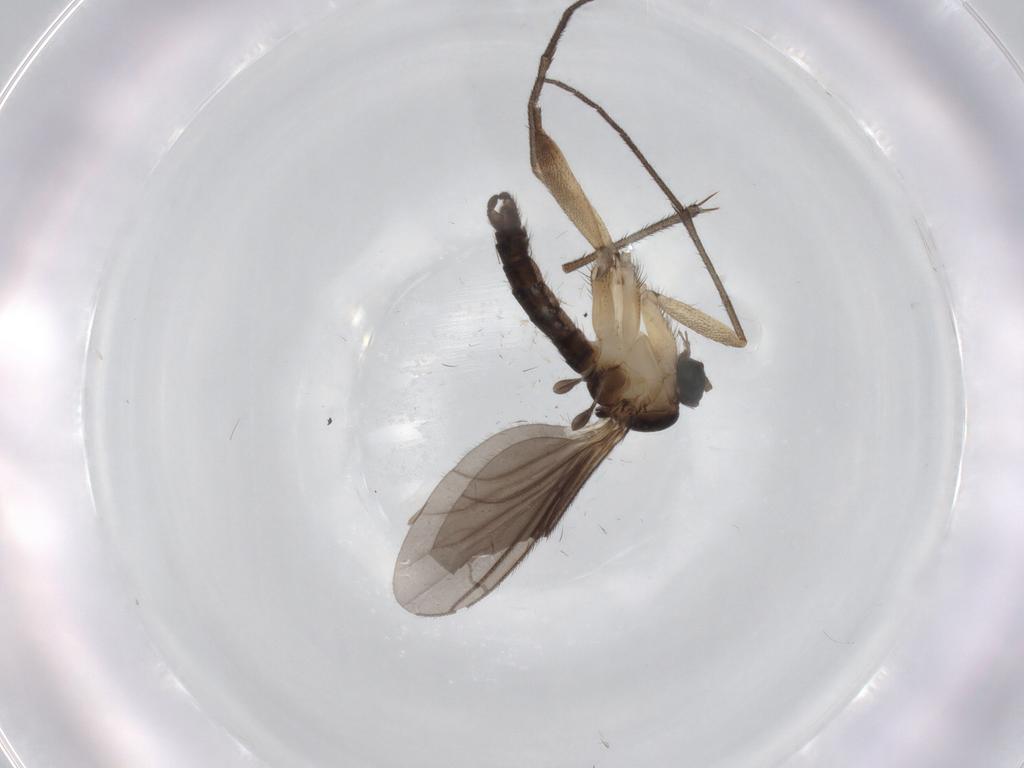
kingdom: Animalia
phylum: Arthropoda
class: Insecta
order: Diptera
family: Sciaridae
